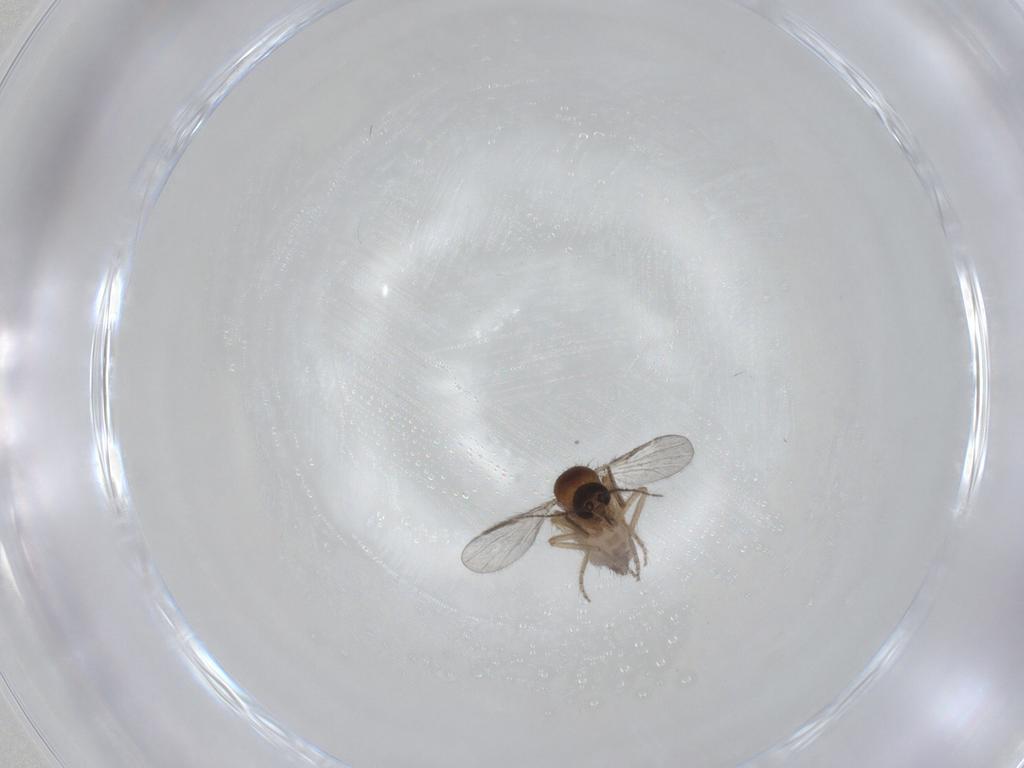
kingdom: Animalia
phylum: Arthropoda
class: Insecta
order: Diptera
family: Ceratopogonidae
